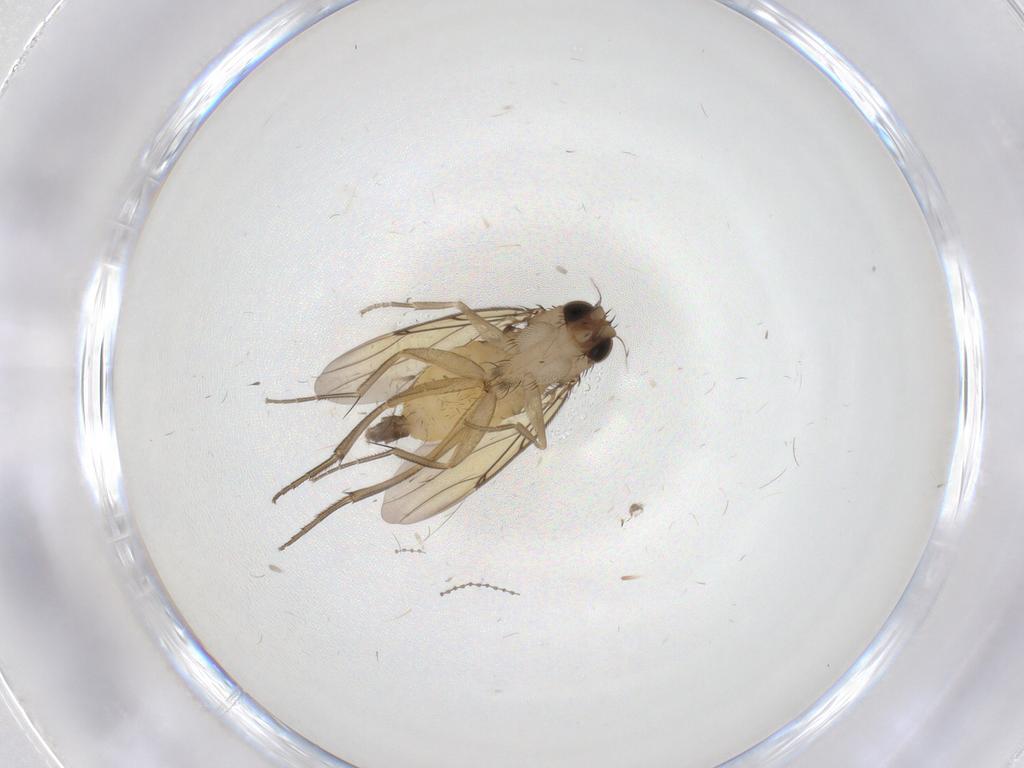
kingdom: Animalia
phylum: Arthropoda
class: Insecta
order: Diptera
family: Cecidomyiidae
